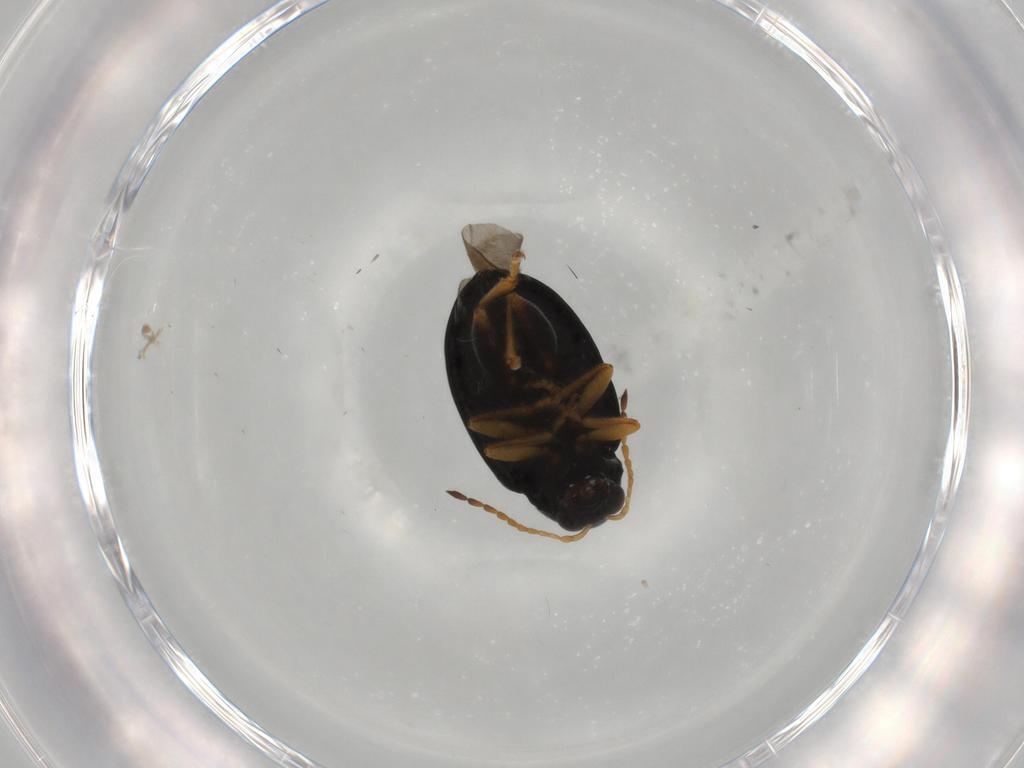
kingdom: Animalia
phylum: Arthropoda
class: Insecta
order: Coleoptera
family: Chrysomelidae
